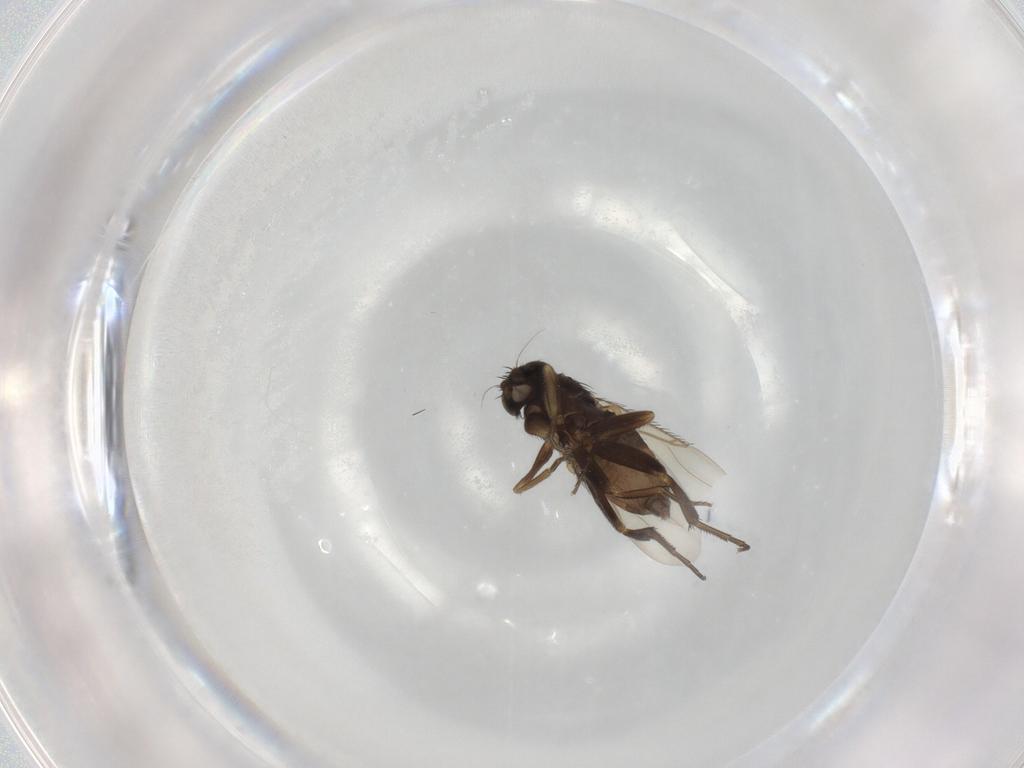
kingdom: Animalia
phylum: Arthropoda
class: Insecta
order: Diptera
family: Phoridae
